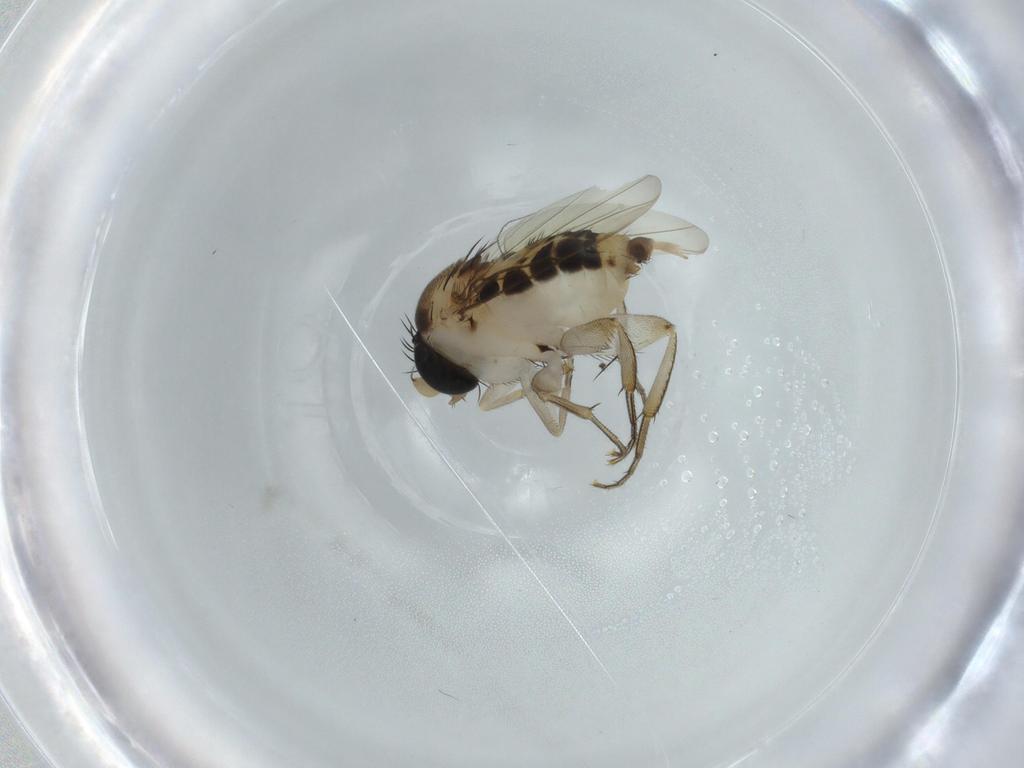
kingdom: Animalia
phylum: Arthropoda
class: Insecta
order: Diptera
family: Phoridae
